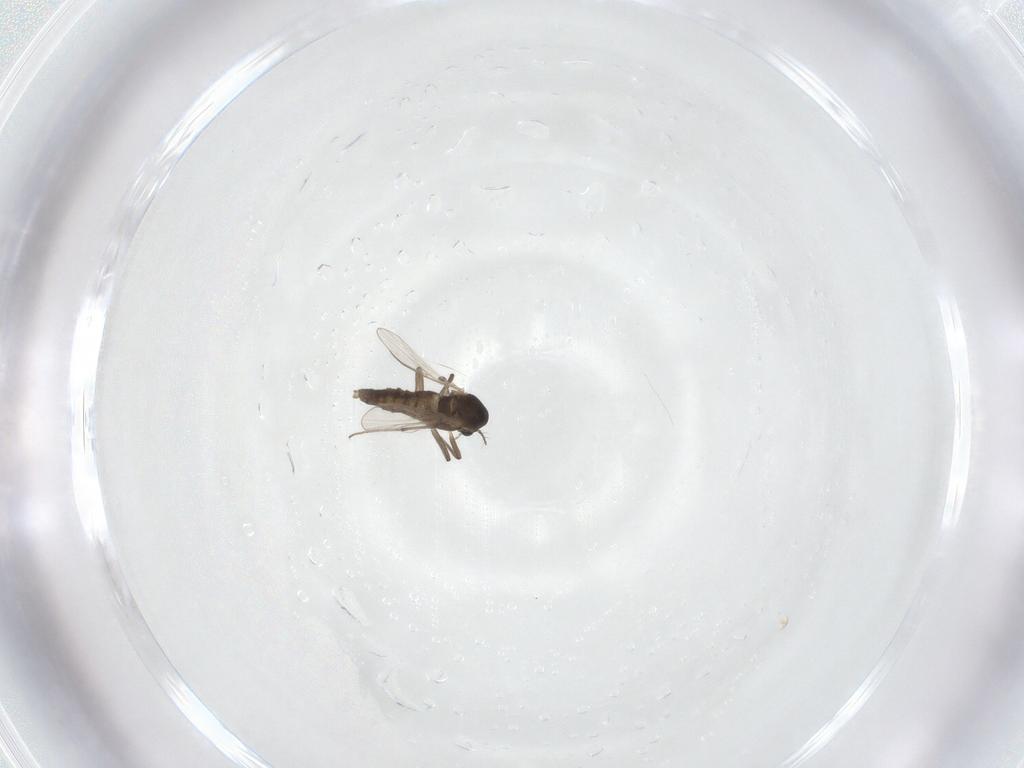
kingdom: Animalia
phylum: Arthropoda
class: Insecta
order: Diptera
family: Chironomidae
